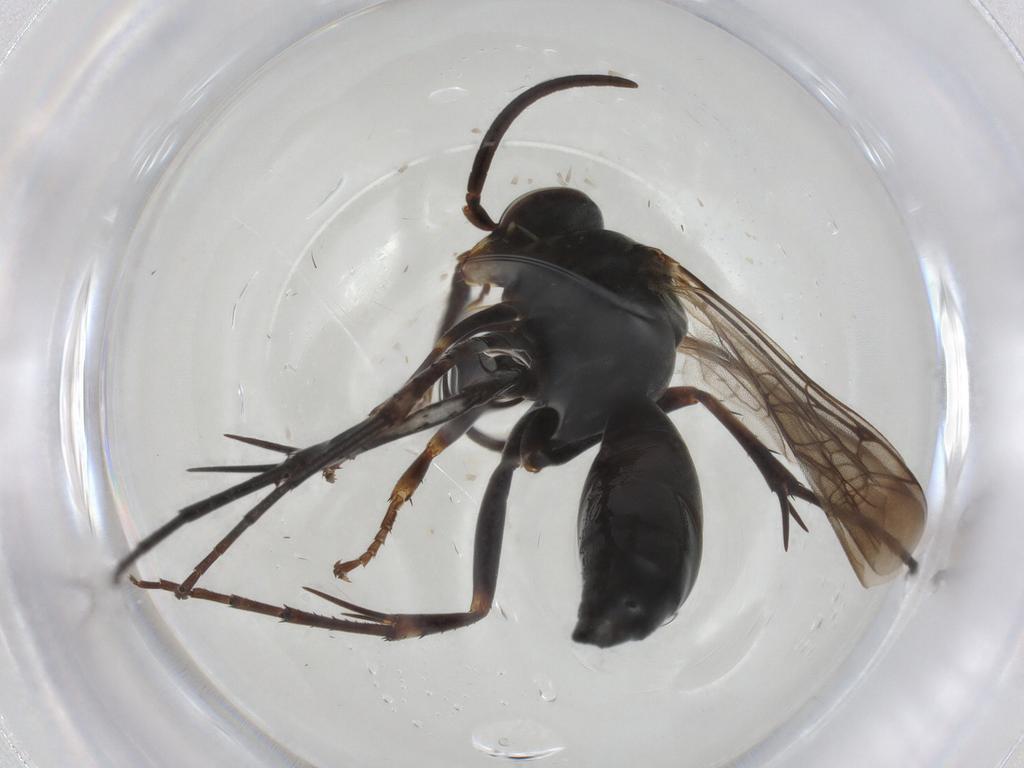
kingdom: Animalia
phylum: Arthropoda
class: Insecta
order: Hymenoptera
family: Pompilidae
